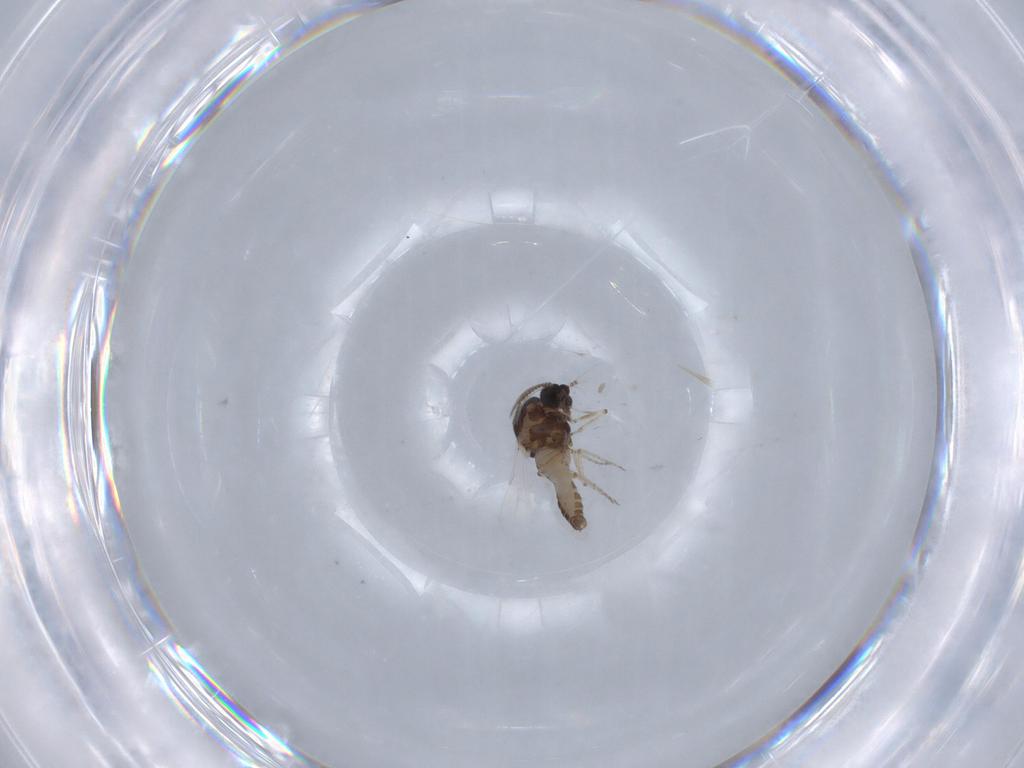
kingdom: Animalia
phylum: Arthropoda
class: Insecta
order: Diptera
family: Ceratopogonidae
